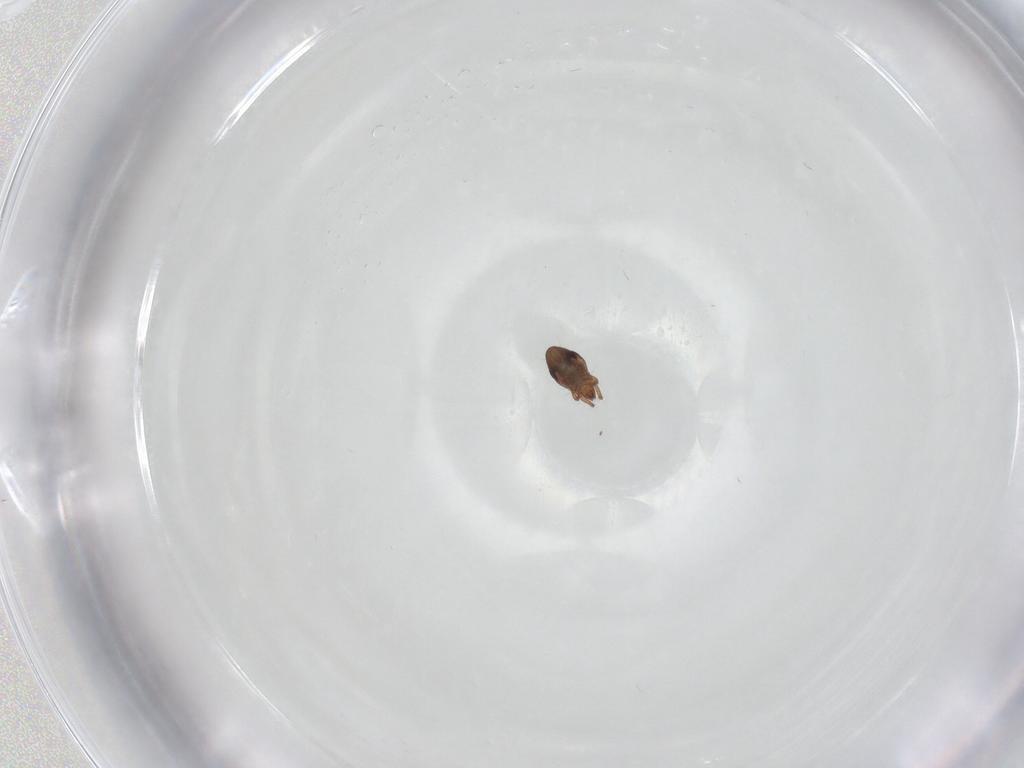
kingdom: Animalia
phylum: Arthropoda
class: Arachnida
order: Sarcoptiformes
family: Ceratozetidae
